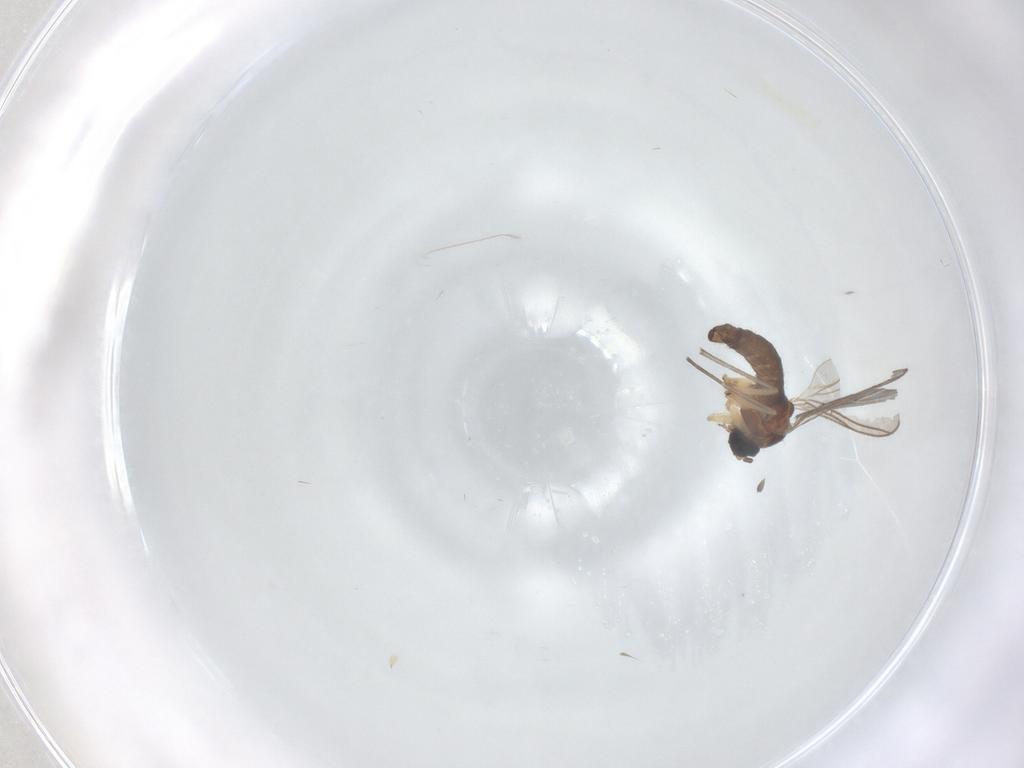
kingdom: Animalia
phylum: Arthropoda
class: Insecta
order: Diptera
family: Sciaridae
